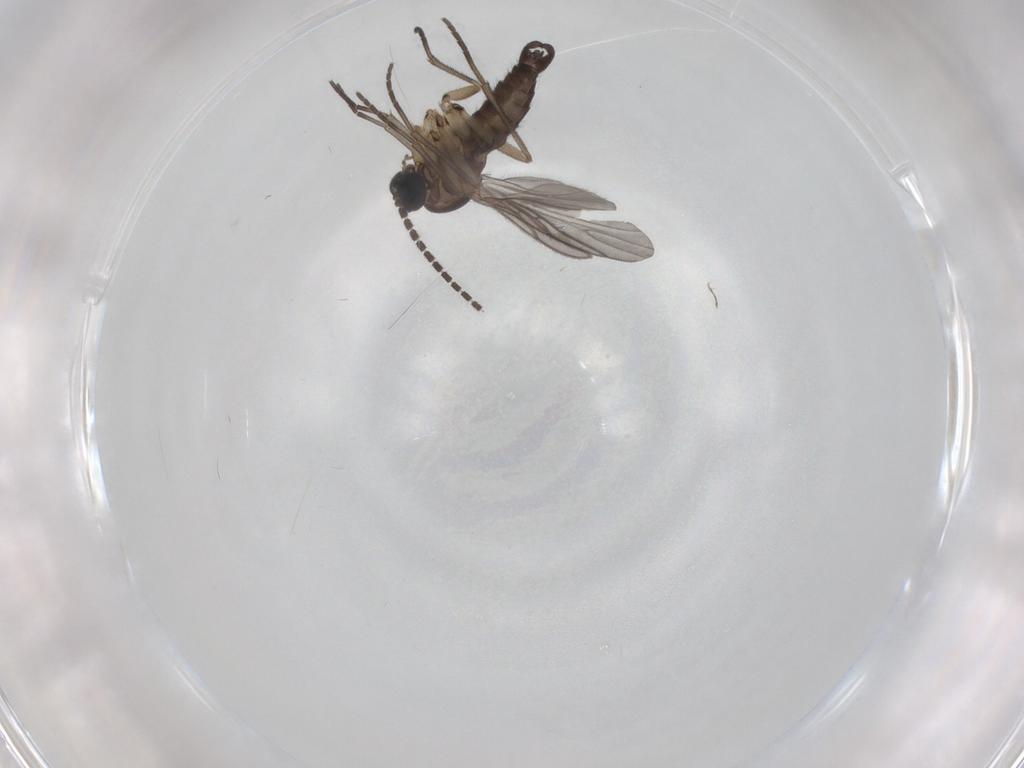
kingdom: Animalia
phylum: Arthropoda
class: Insecta
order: Diptera
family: Sciaridae
